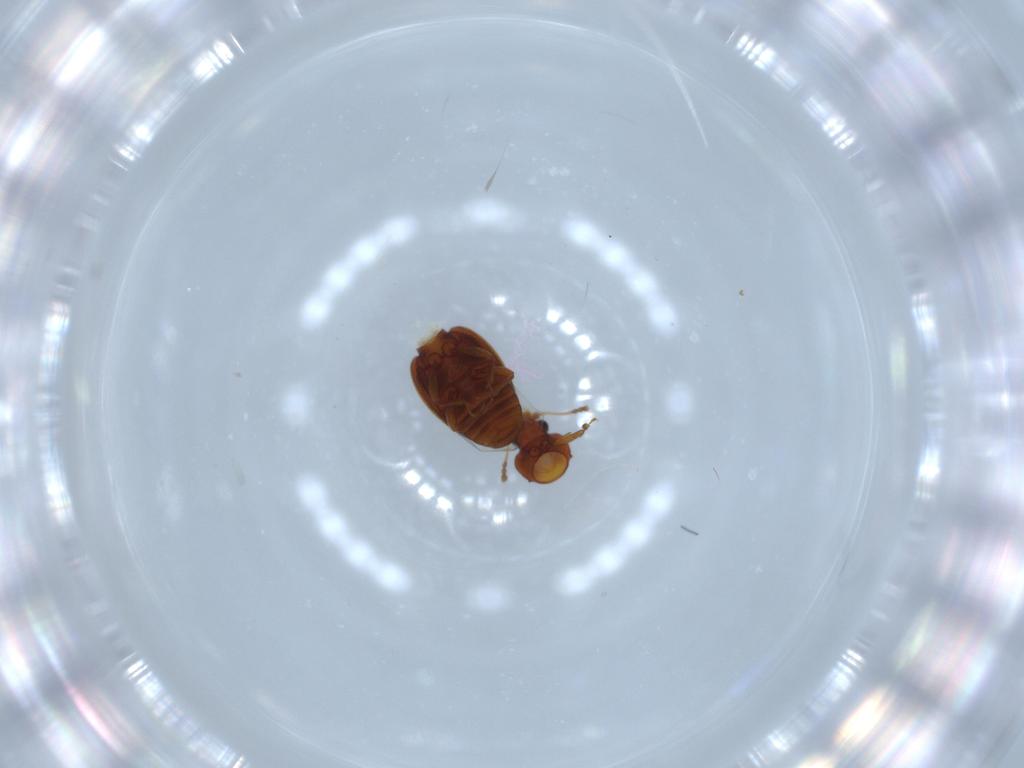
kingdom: Animalia
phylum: Arthropoda
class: Insecta
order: Coleoptera
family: Latridiidae
